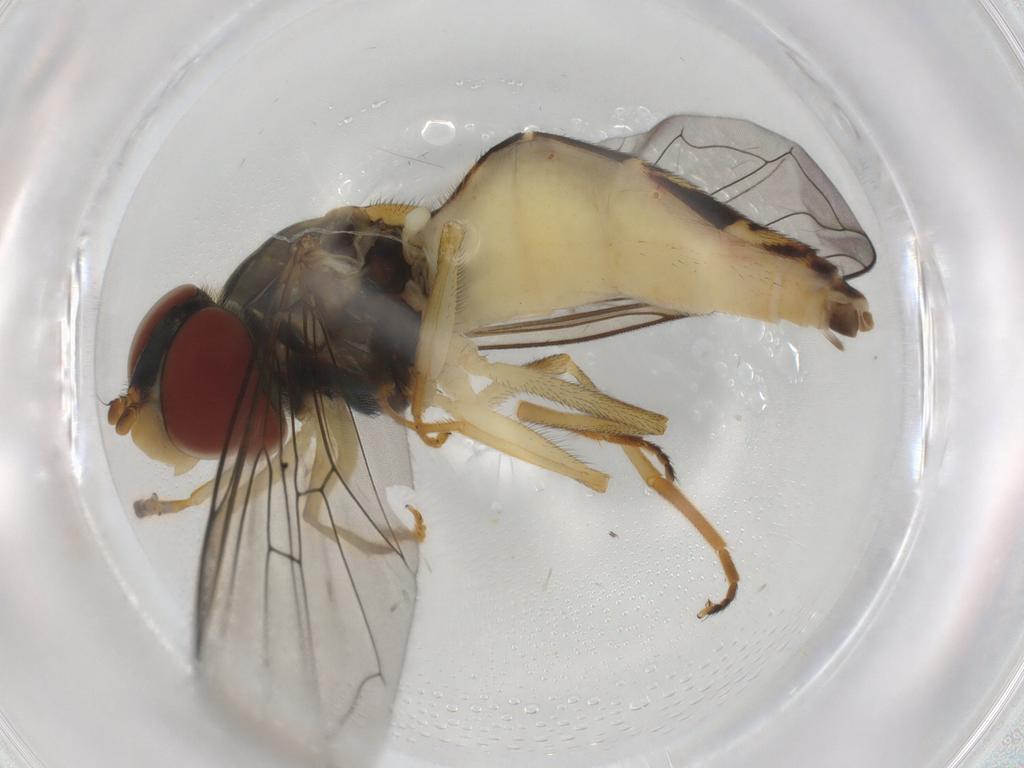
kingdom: Animalia
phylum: Arthropoda
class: Insecta
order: Diptera
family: Syrphidae
